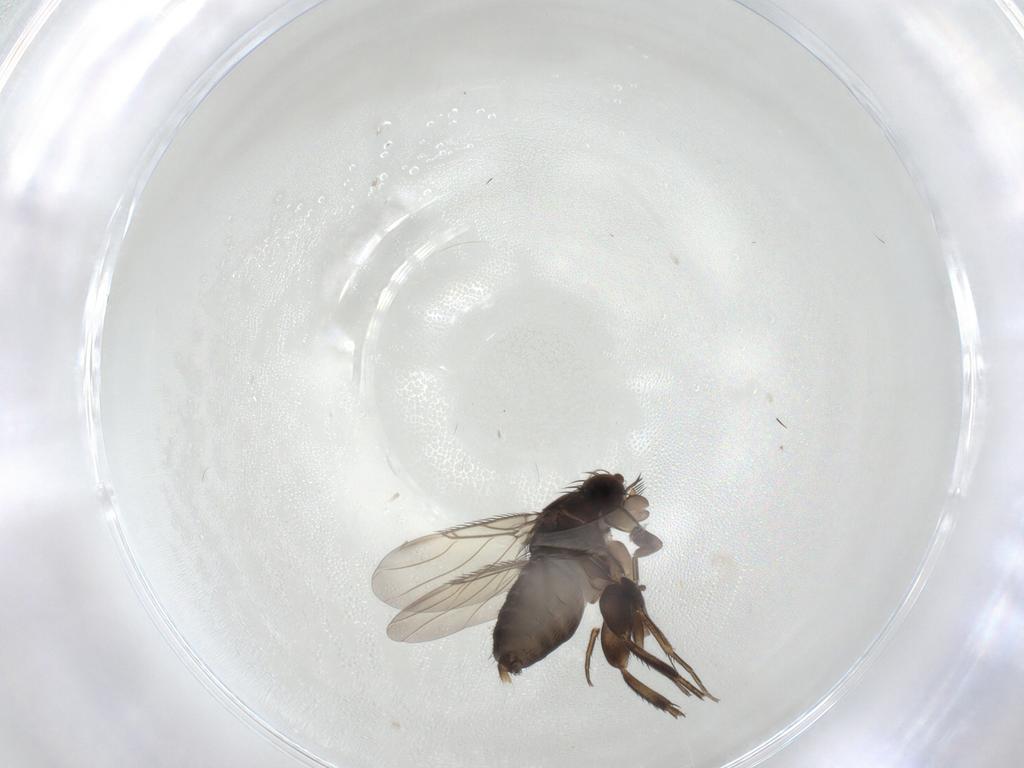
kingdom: Animalia
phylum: Arthropoda
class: Insecta
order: Diptera
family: Phoridae
